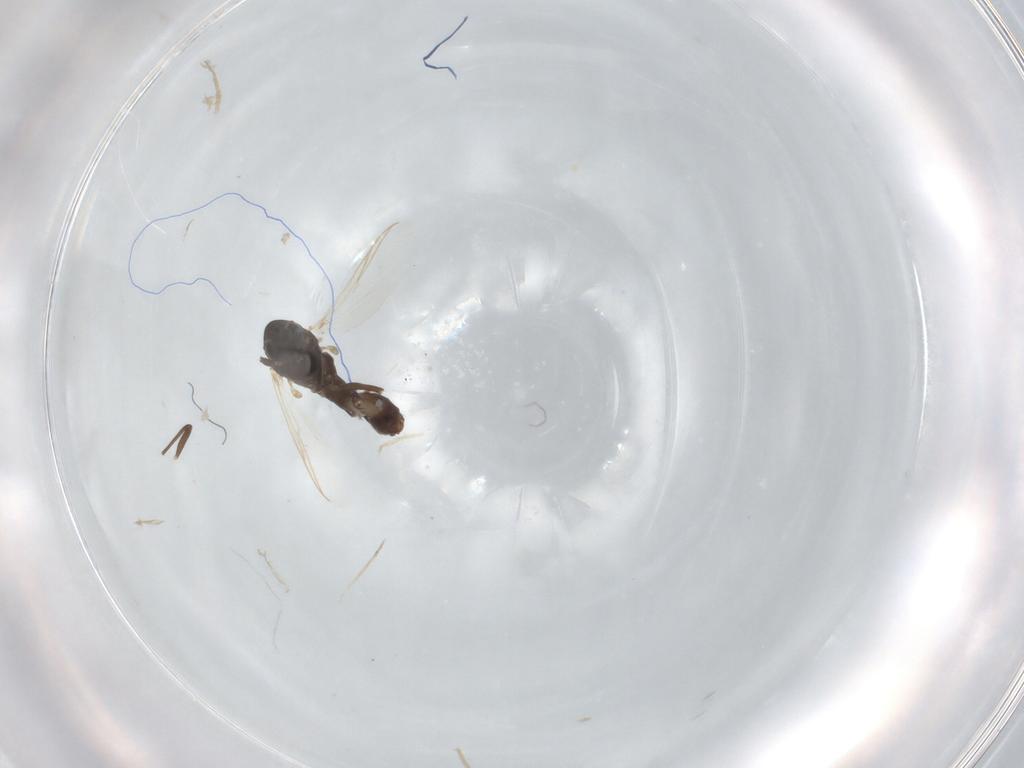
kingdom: Animalia
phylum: Arthropoda
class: Insecta
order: Diptera
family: Chironomidae
